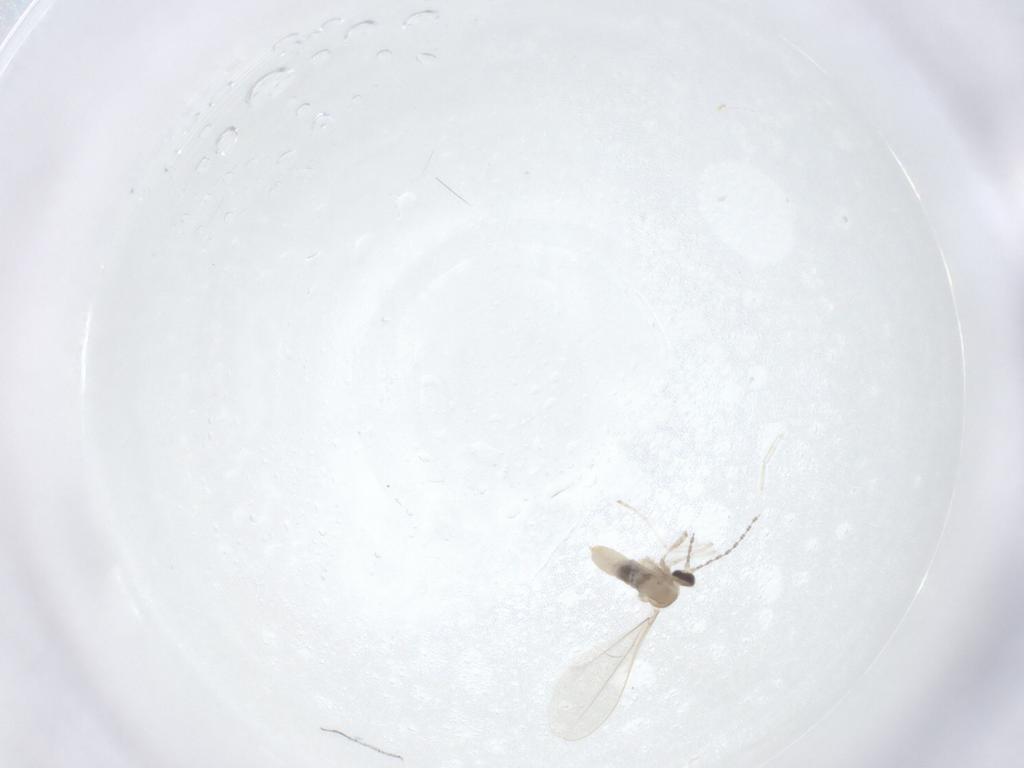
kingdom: Animalia
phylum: Arthropoda
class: Insecta
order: Diptera
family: Cecidomyiidae
